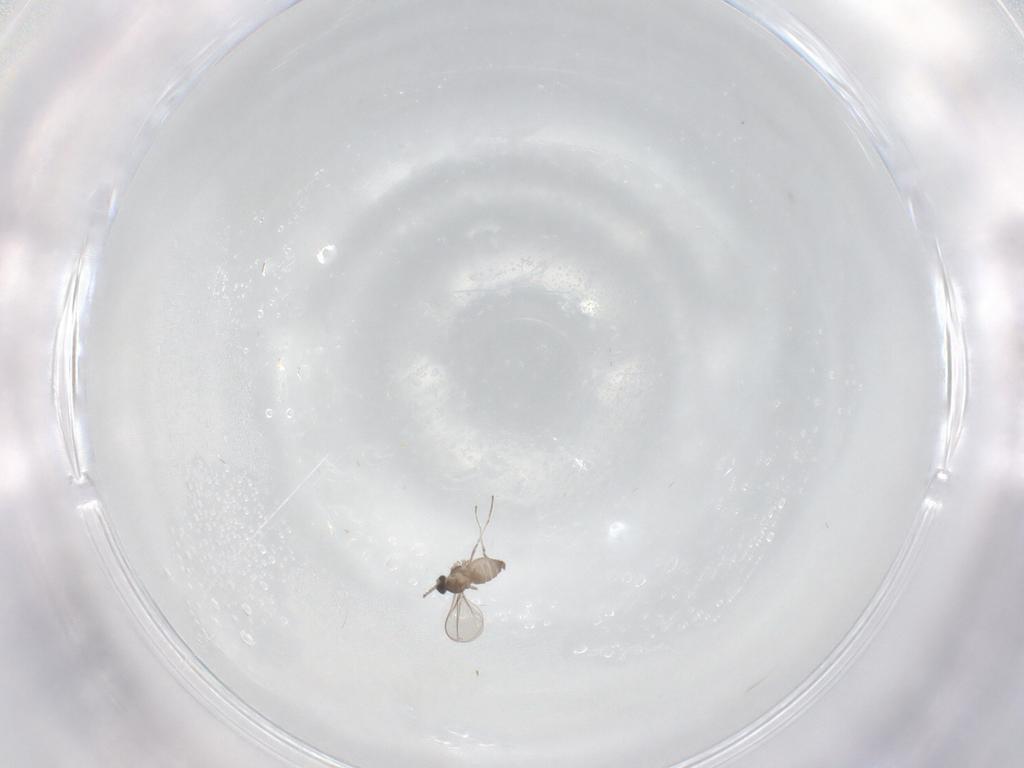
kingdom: Animalia
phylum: Arthropoda
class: Insecta
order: Diptera
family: Cecidomyiidae
